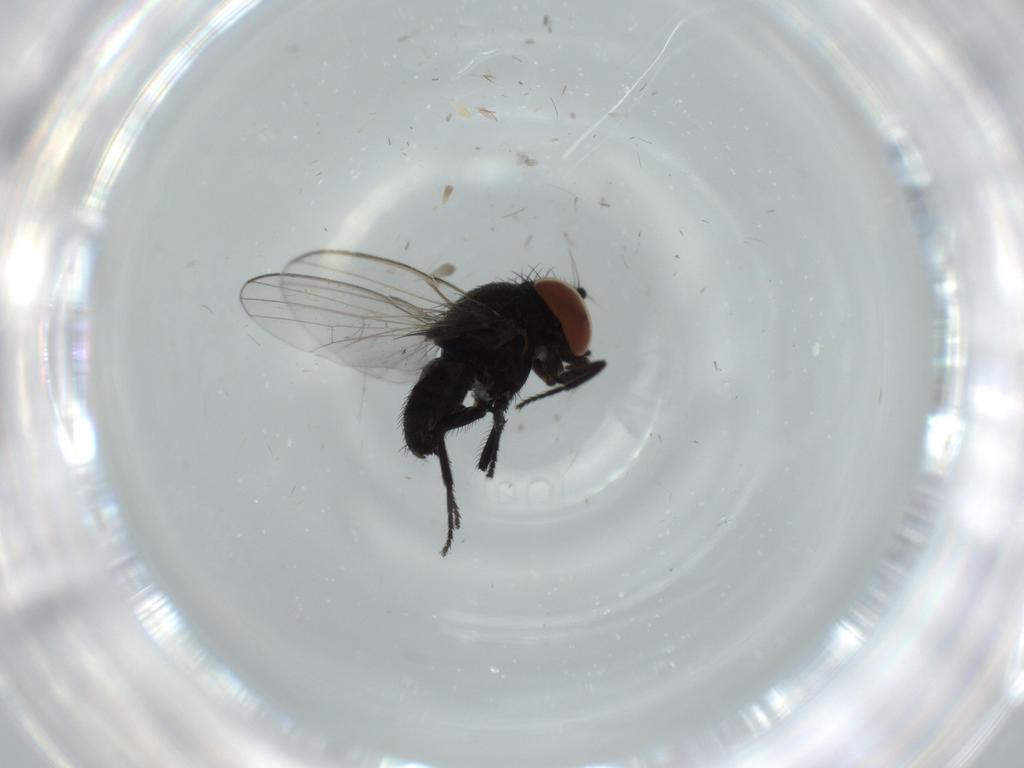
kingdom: Animalia
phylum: Arthropoda
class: Insecta
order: Diptera
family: Milichiidae
